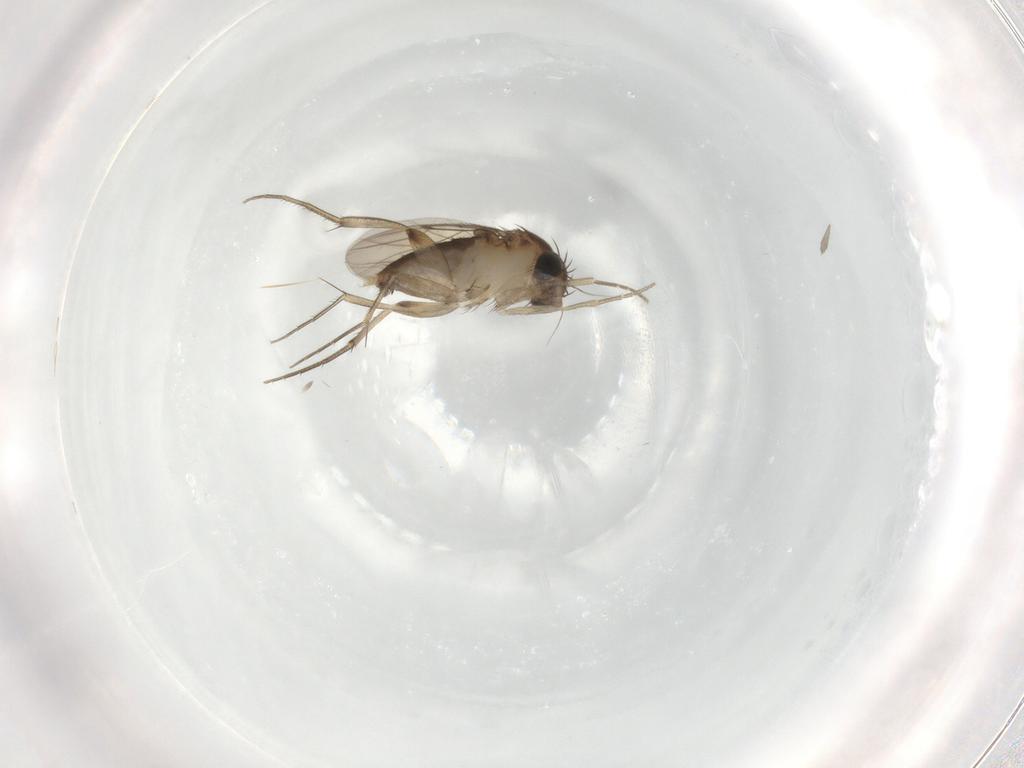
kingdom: Animalia
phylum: Arthropoda
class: Insecta
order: Diptera
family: Phoridae
